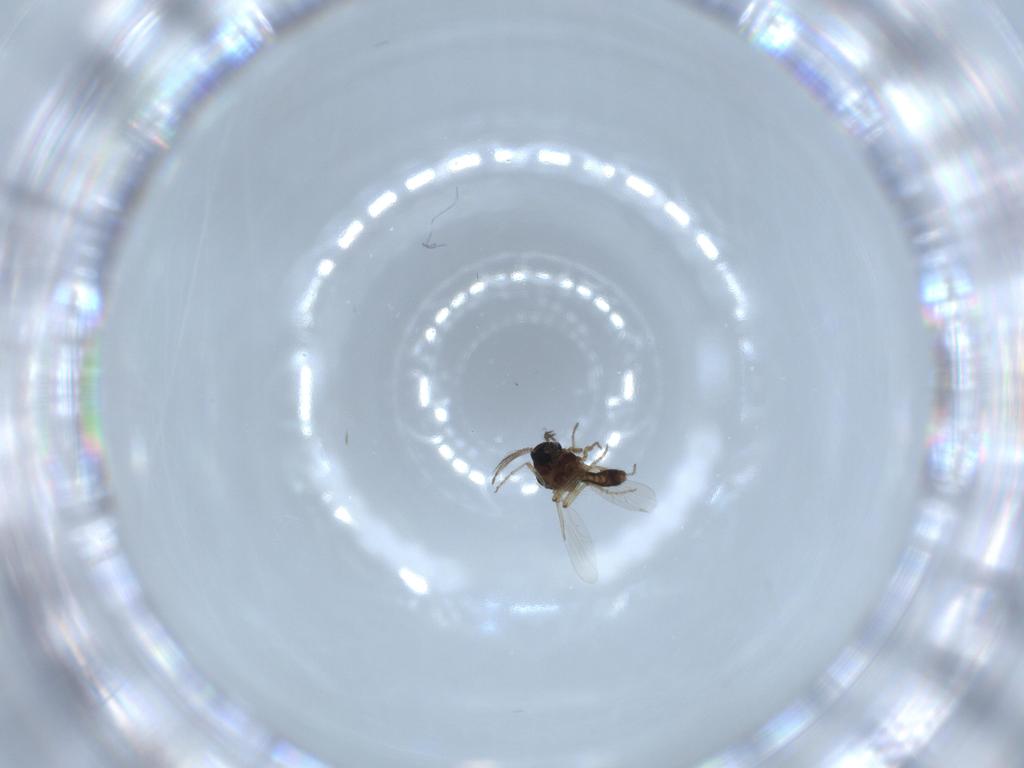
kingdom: Animalia
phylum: Arthropoda
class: Insecta
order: Diptera
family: Ceratopogonidae
